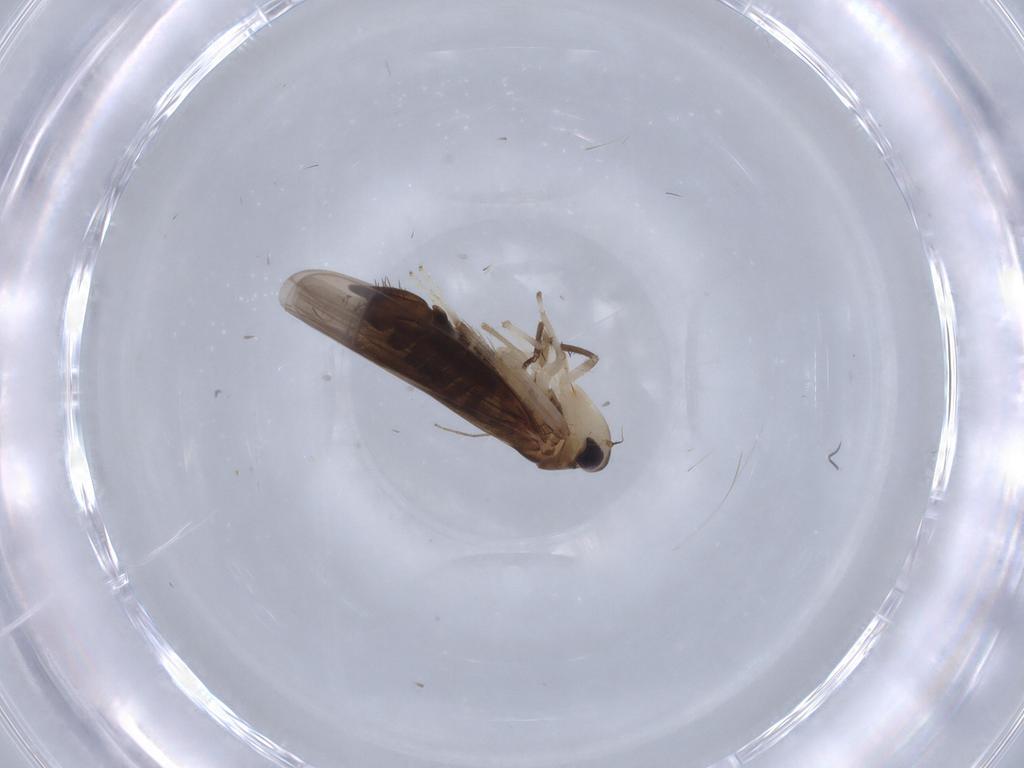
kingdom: Animalia
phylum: Arthropoda
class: Insecta
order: Hemiptera
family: Cicadellidae
